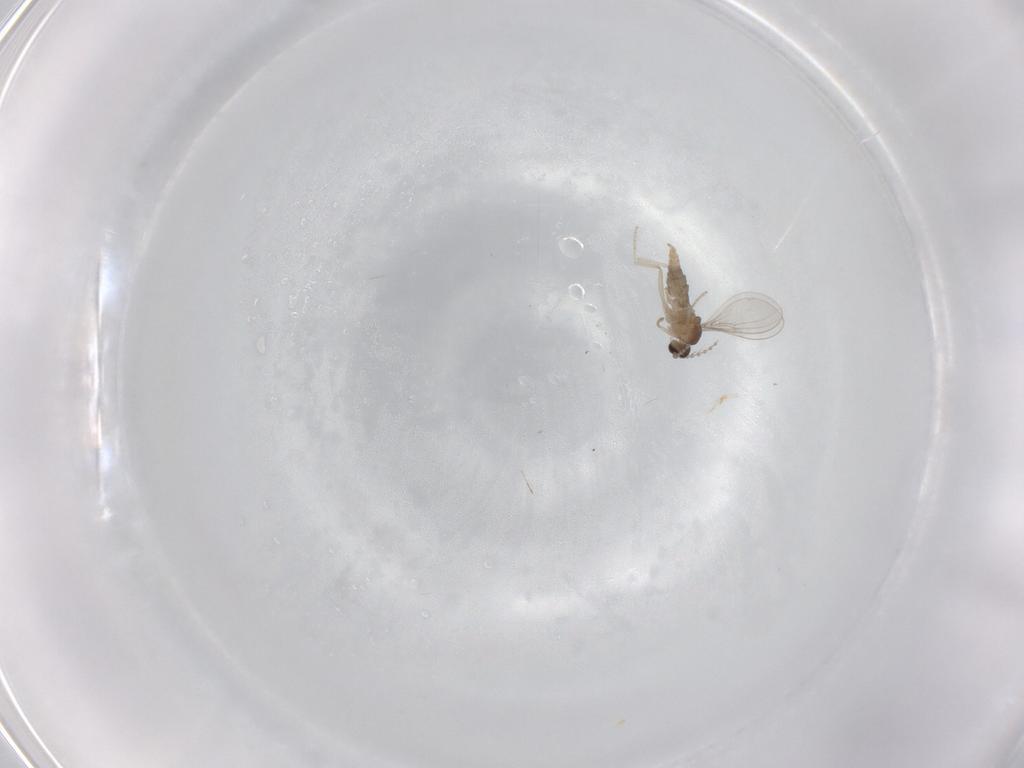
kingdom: Animalia
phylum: Arthropoda
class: Insecta
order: Diptera
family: Cecidomyiidae
